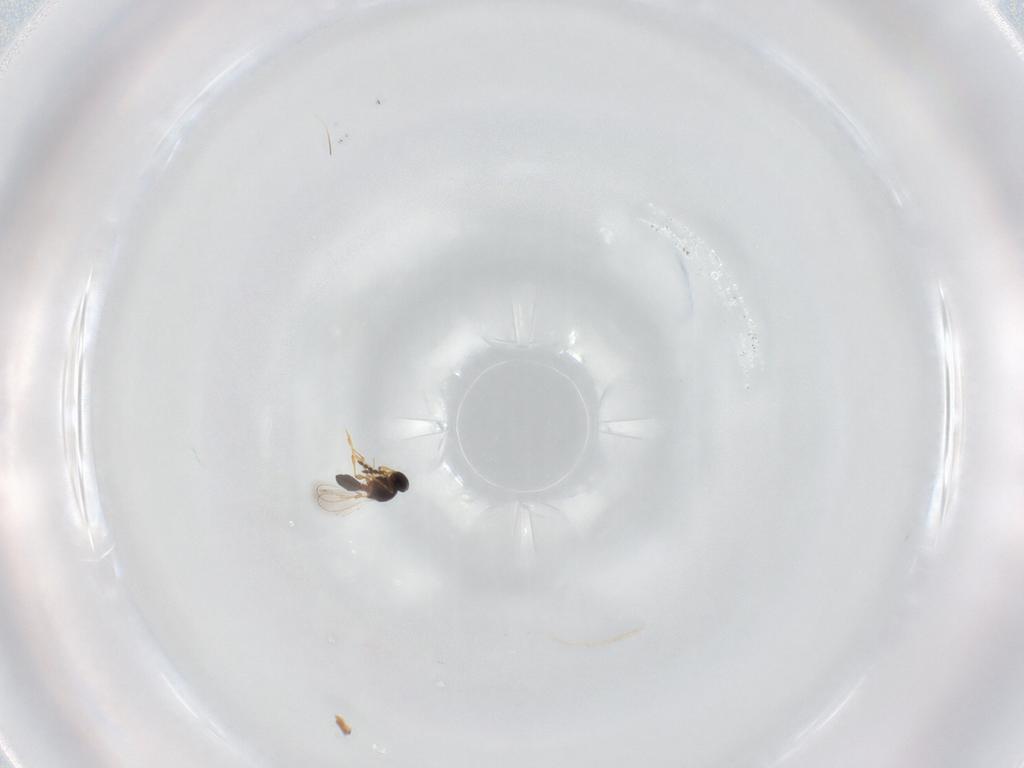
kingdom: Animalia
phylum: Arthropoda
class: Insecta
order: Hymenoptera
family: Platygastridae
